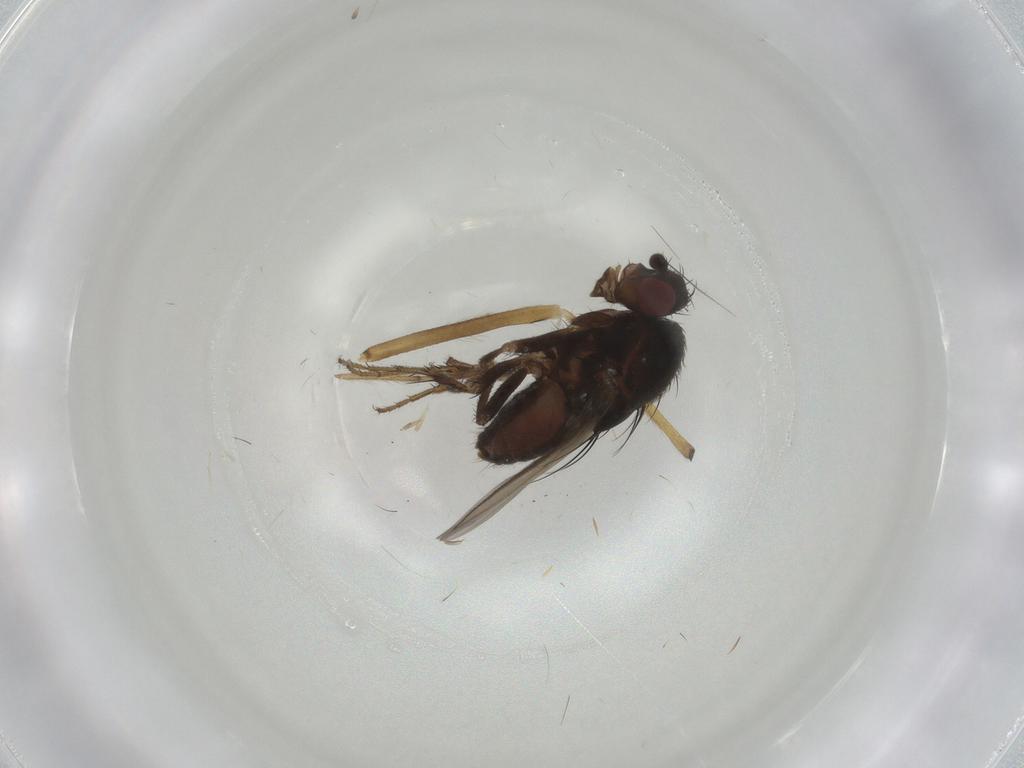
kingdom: Animalia
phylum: Arthropoda
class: Insecta
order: Diptera
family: Sphaeroceridae
